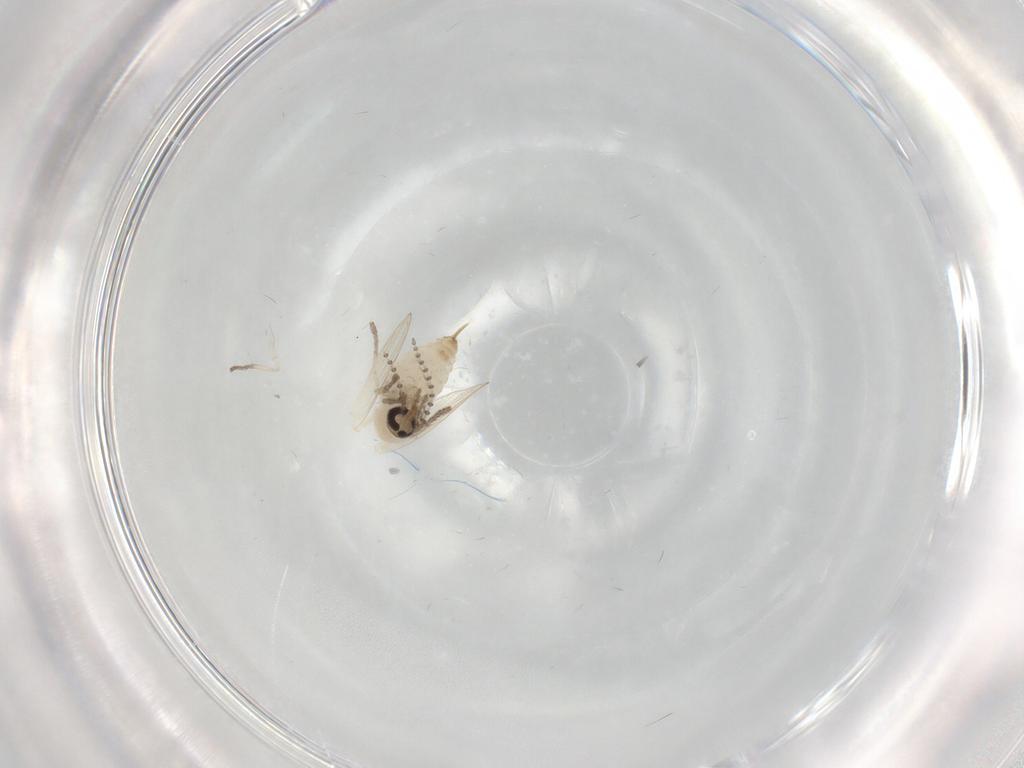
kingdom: Animalia
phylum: Arthropoda
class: Insecta
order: Diptera
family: Psychodidae
